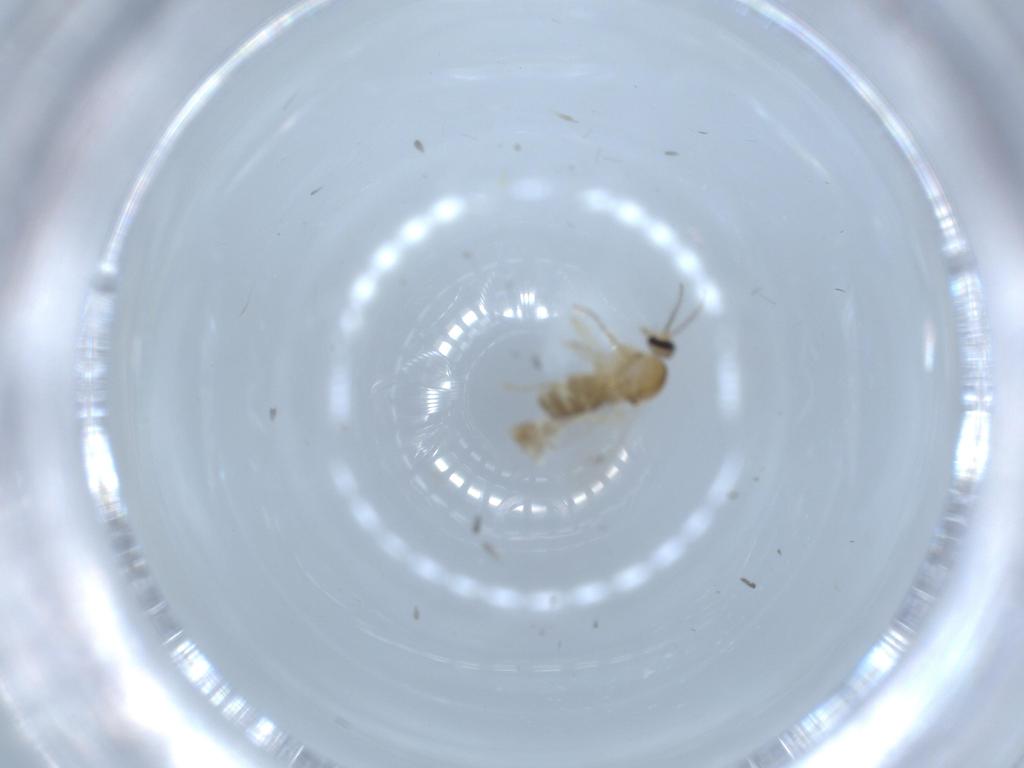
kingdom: Animalia
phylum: Arthropoda
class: Insecta
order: Diptera
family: Ceratopogonidae
